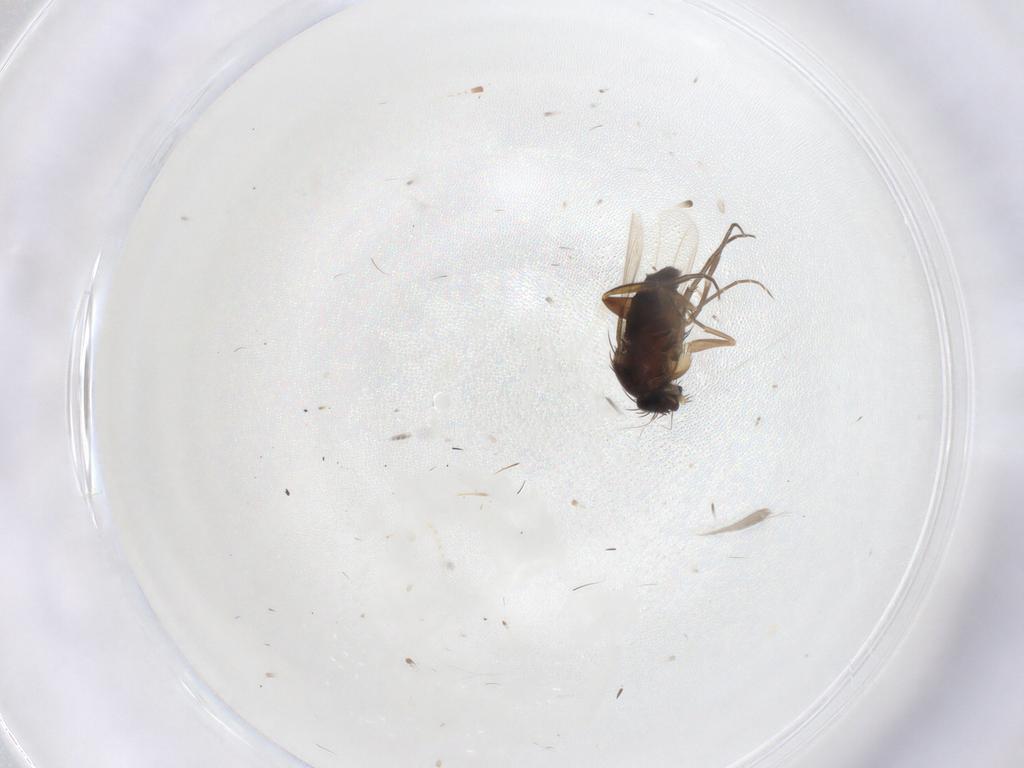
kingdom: Animalia
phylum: Arthropoda
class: Insecta
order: Diptera
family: Phoridae
